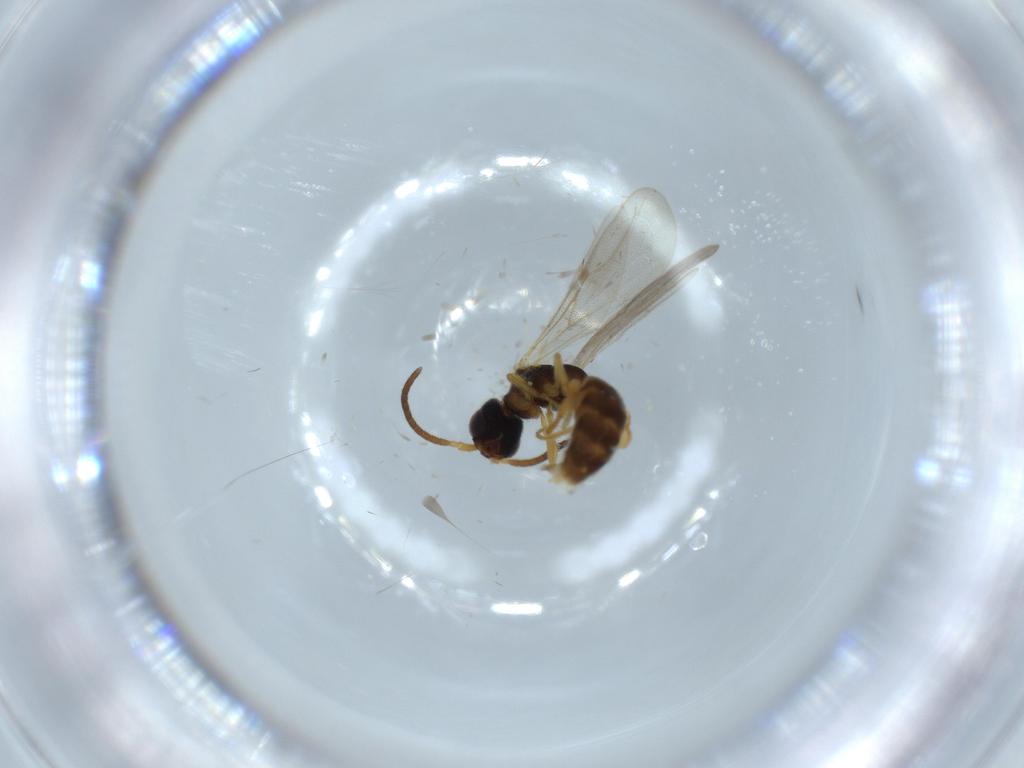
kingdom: Animalia
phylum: Arthropoda
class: Insecta
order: Hymenoptera
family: Bethylidae
